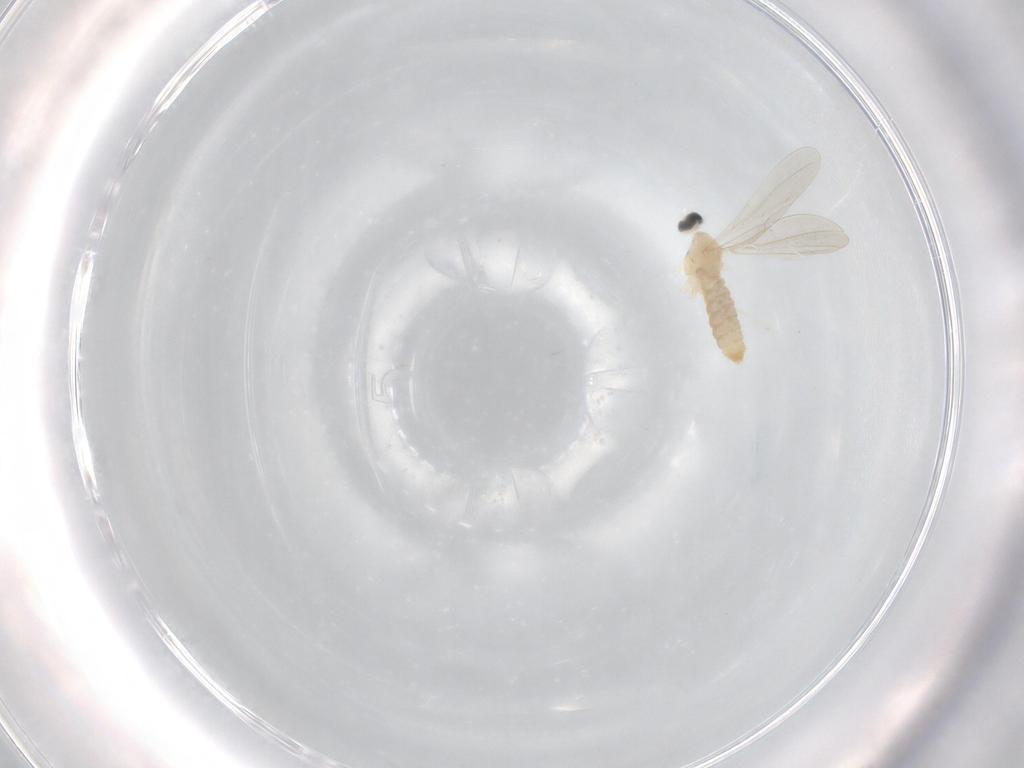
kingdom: Animalia
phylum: Arthropoda
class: Insecta
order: Diptera
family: Cecidomyiidae
